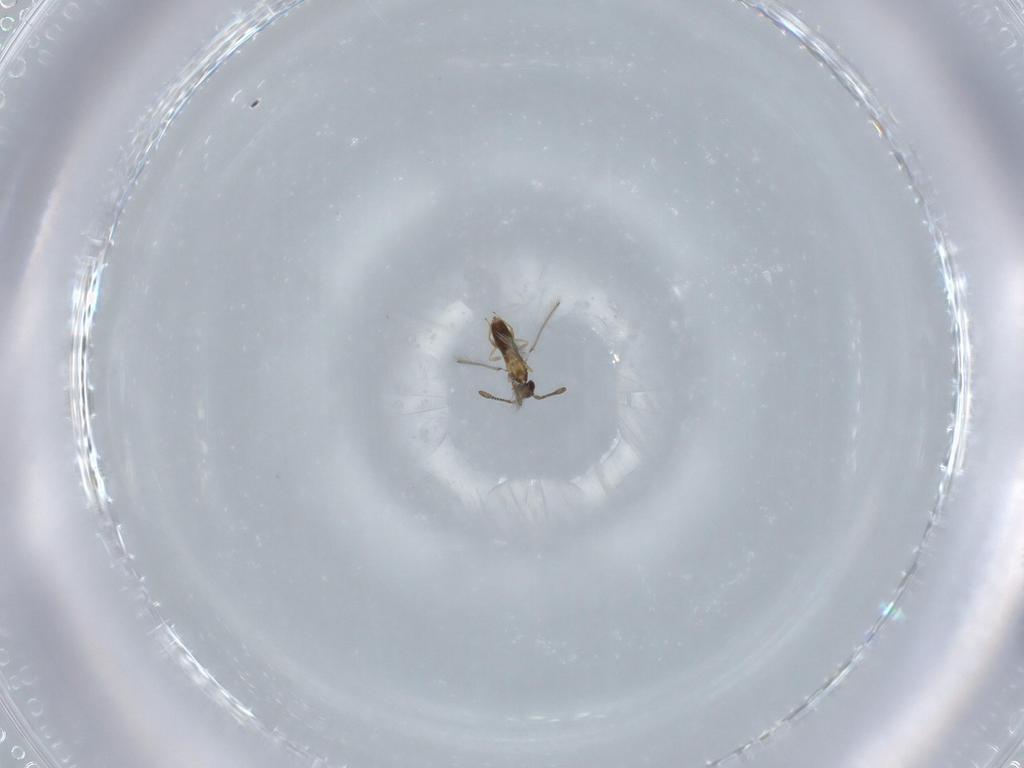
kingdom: Animalia
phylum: Arthropoda
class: Insecta
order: Hymenoptera
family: Mymaridae
